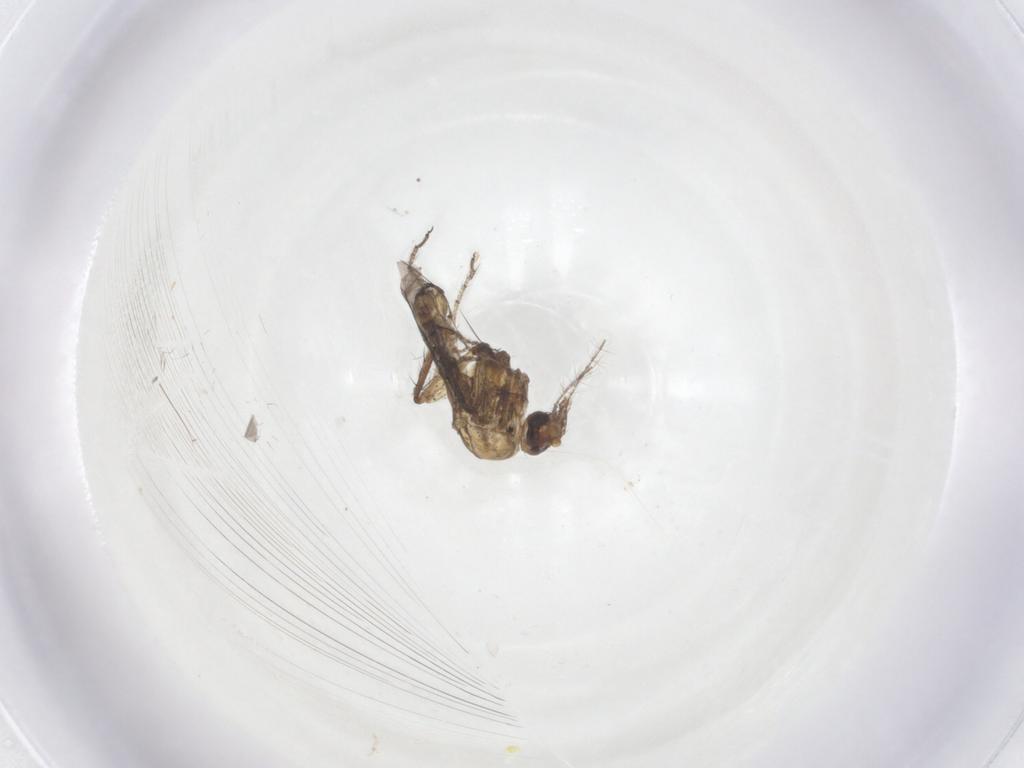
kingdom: Animalia
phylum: Arthropoda
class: Insecta
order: Diptera
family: Ceratopogonidae
